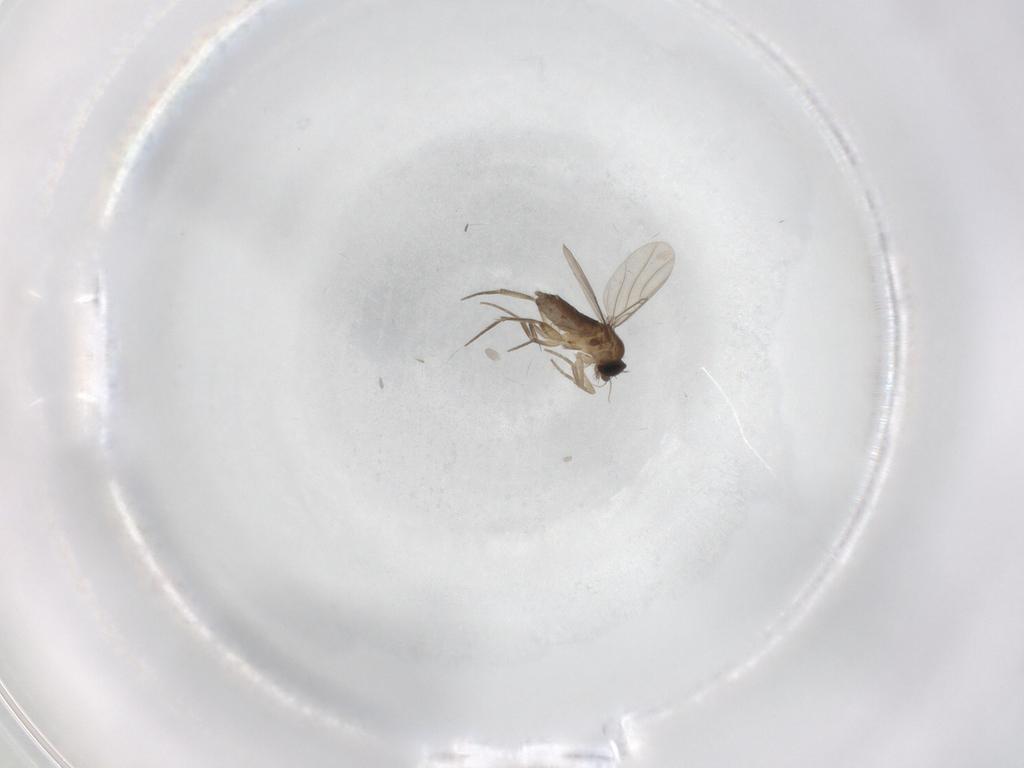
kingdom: Animalia
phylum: Arthropoda
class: Insecta
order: Diptera
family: Phoridae
